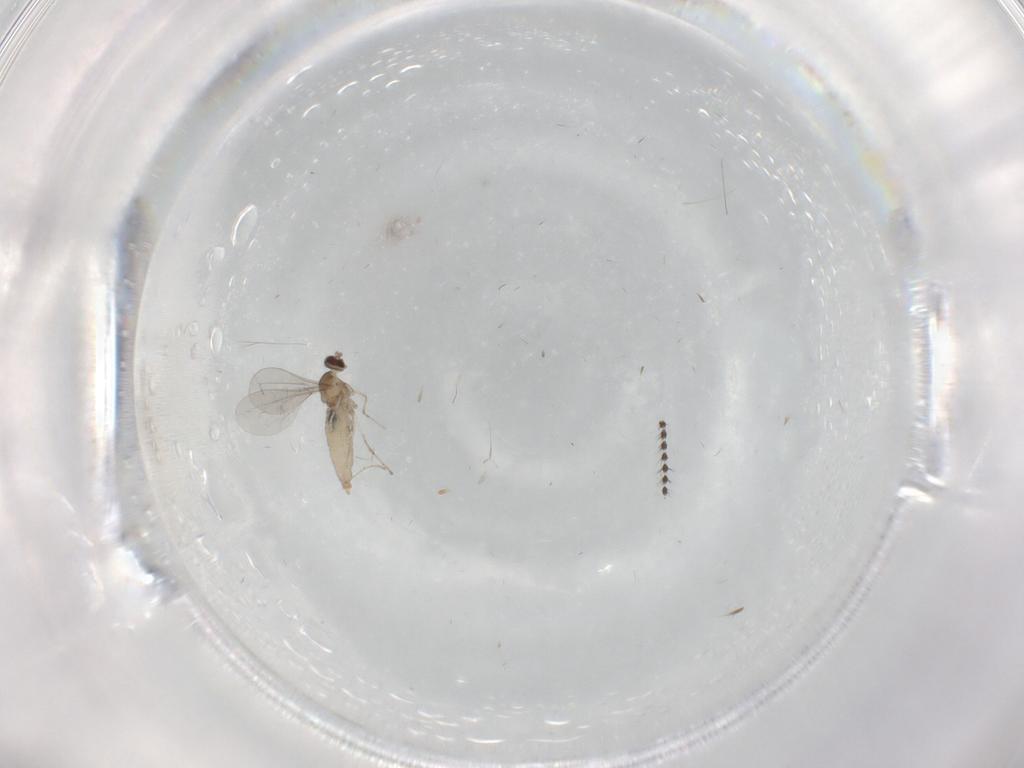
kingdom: Animalia
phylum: Arthropoda
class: Insecta
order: Diptera
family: Cecidomyiidae
